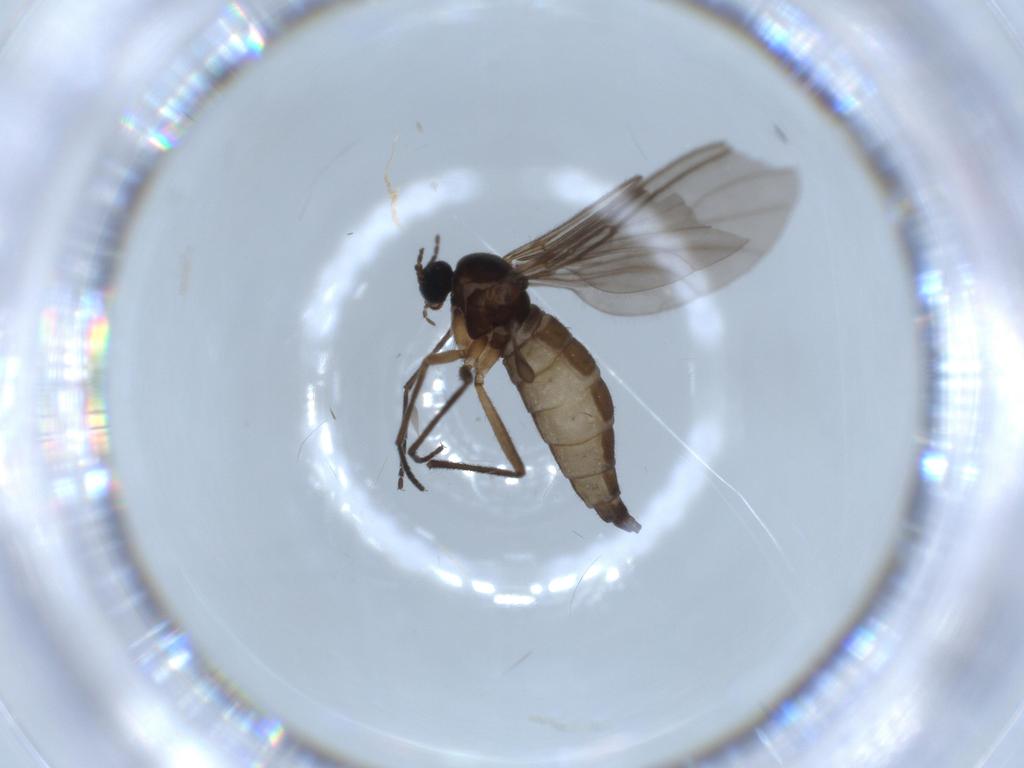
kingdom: Animalia
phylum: Arthropoda
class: Insecta
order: Diptera
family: Sciaridae
